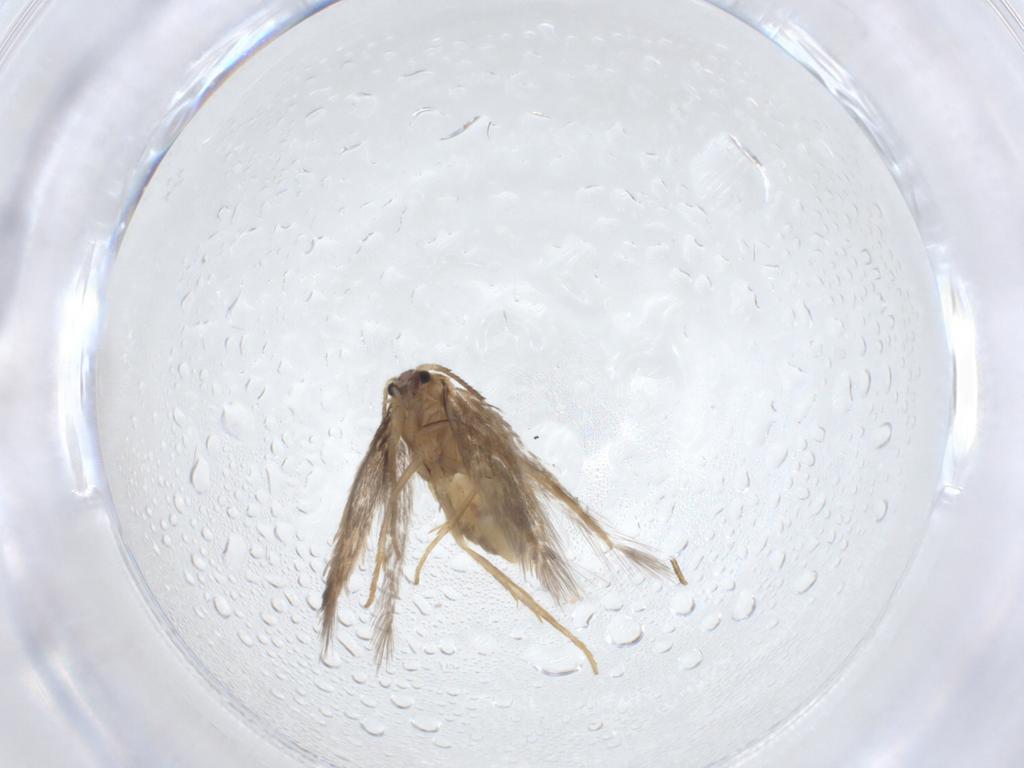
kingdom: Animalia
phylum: Arthropoda
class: Insecta
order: Lepidoptera
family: Nepticulidae
